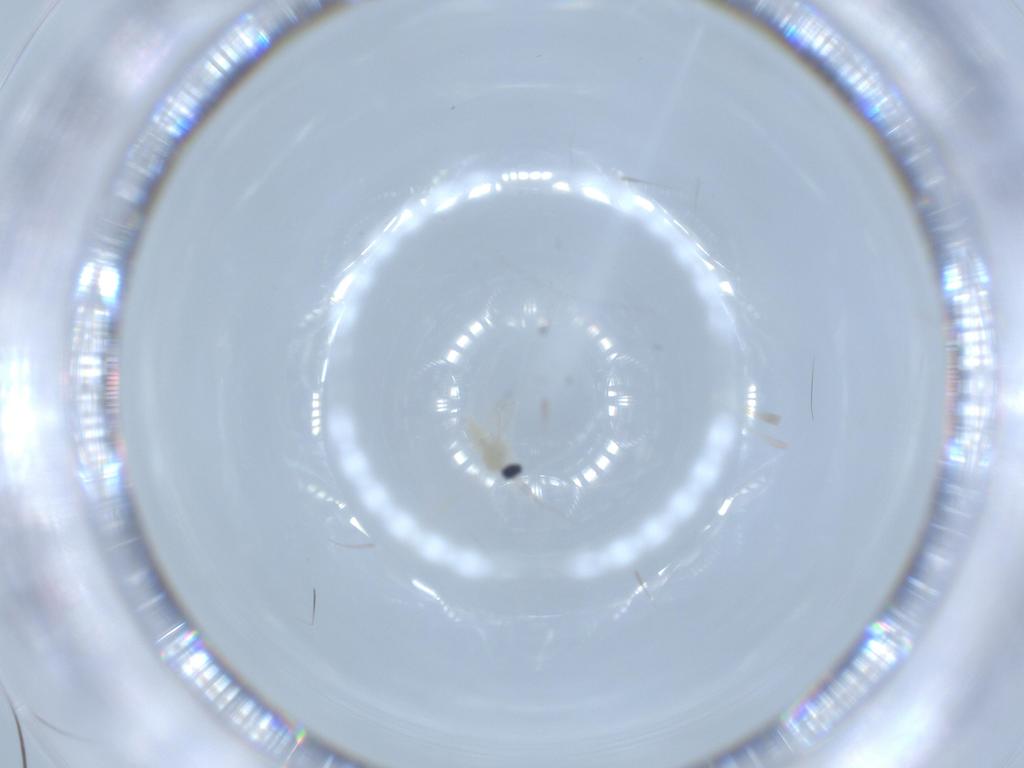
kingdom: Animalia
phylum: Arthropoda
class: Insecta
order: Diptera
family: Cecidomyiidae
